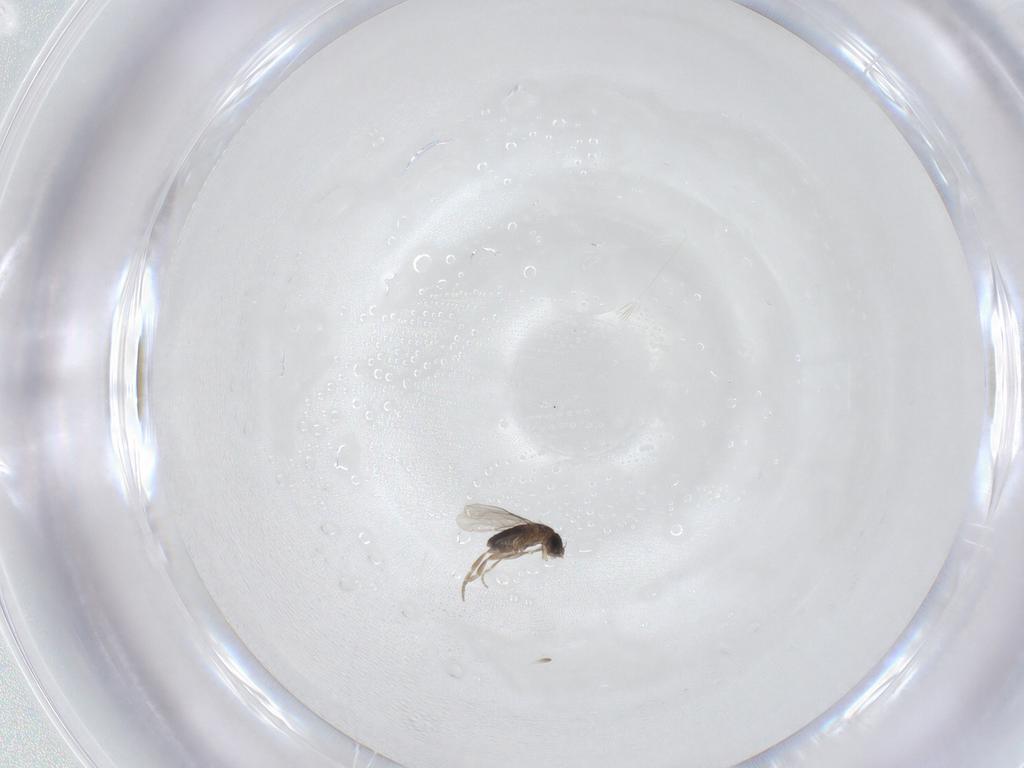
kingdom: Animalia
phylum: Arthropoda
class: Insecta
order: Diptera
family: Phoridae
